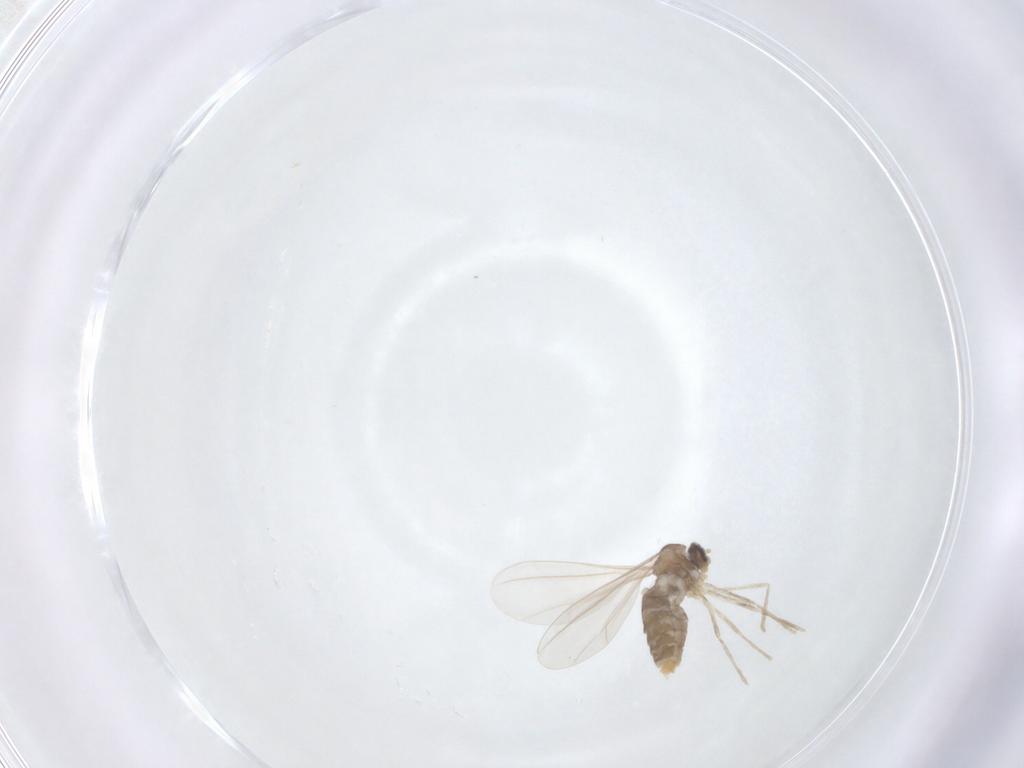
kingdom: Animalia
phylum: Arthropoda
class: Insecta
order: Diptera
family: Cecidomyiidae
